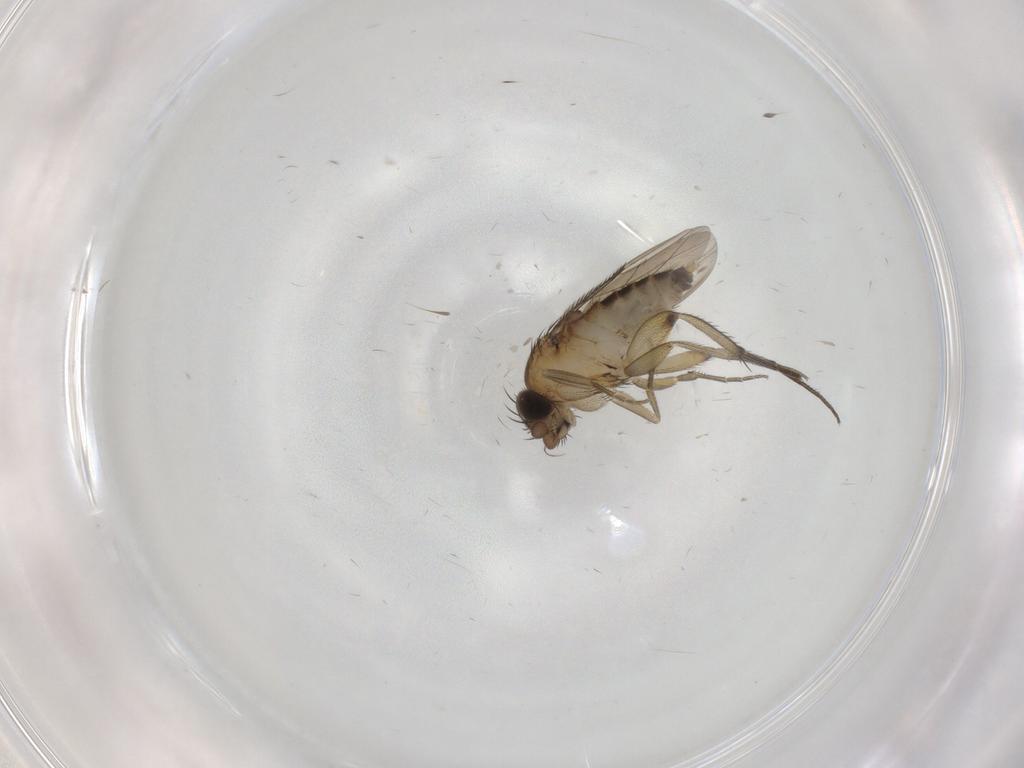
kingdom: Animalia
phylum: Arthropoda
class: Insecta
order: Diptera
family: Phoridae
